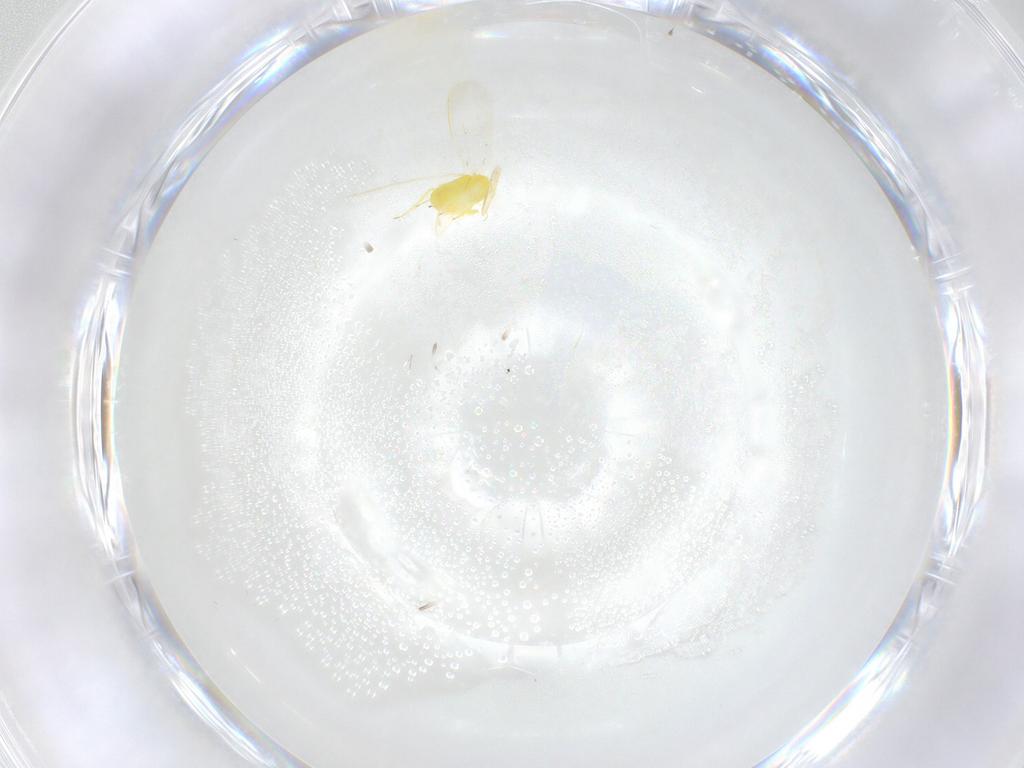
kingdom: Animalia
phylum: Arthropoda
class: Insecta
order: Hemiptera
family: Aleyrodidae
